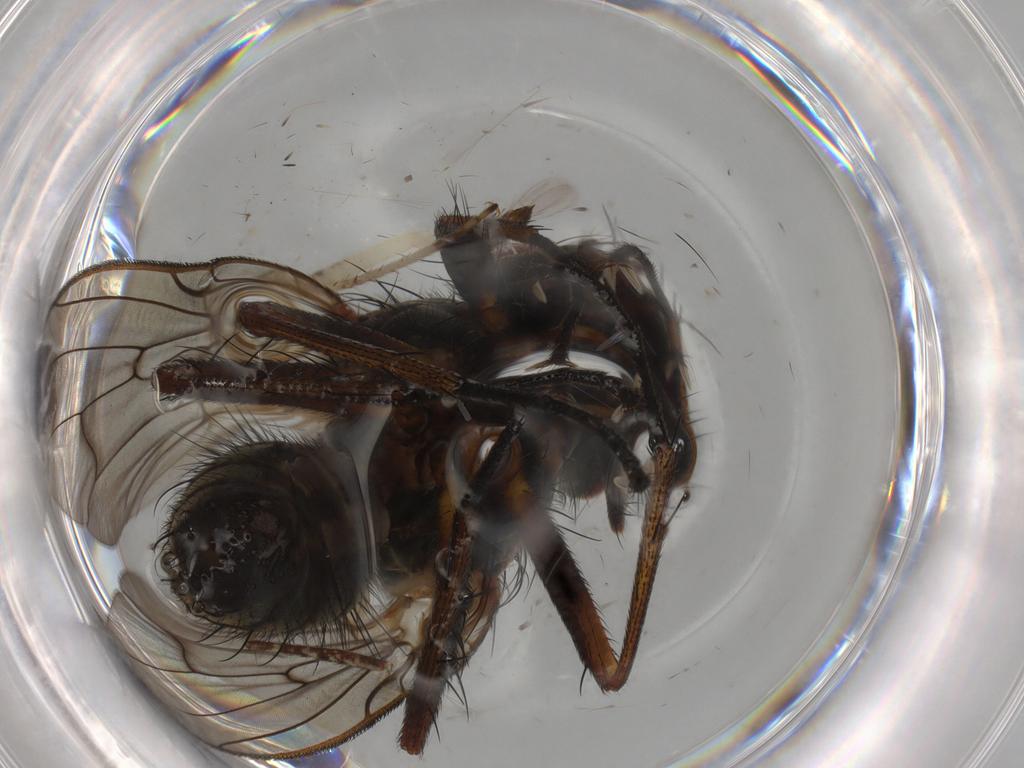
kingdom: Animalia
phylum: Arthropoda
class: Insecta
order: Diptera
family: Anthomyiidae
